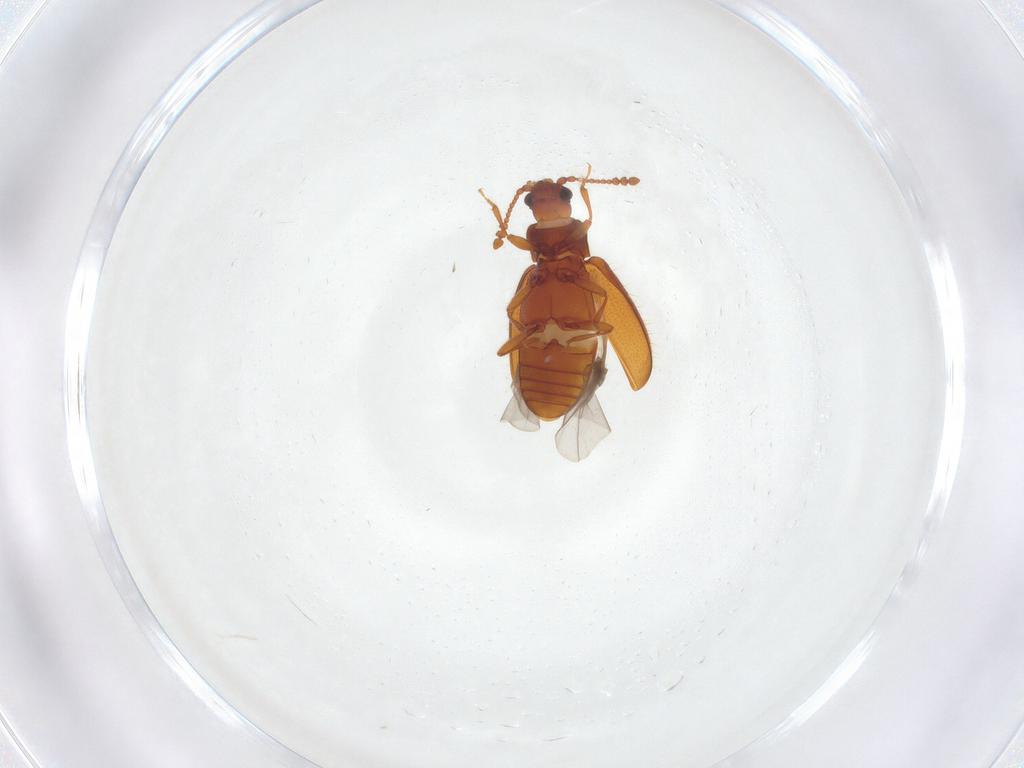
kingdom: Animalia
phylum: Arthropoda
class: Insecta
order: Coleoptera
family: Cryptophagidae
